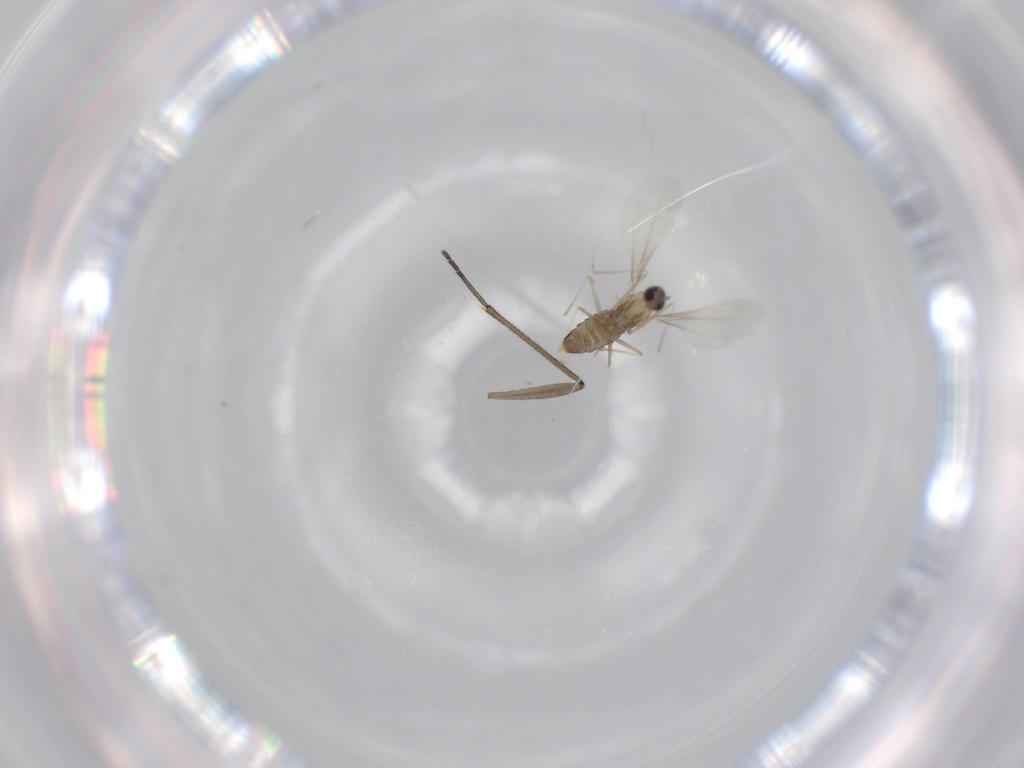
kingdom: Animalia
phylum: Arthropoda
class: Insecta
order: Diptera
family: Cecidomyiidae
